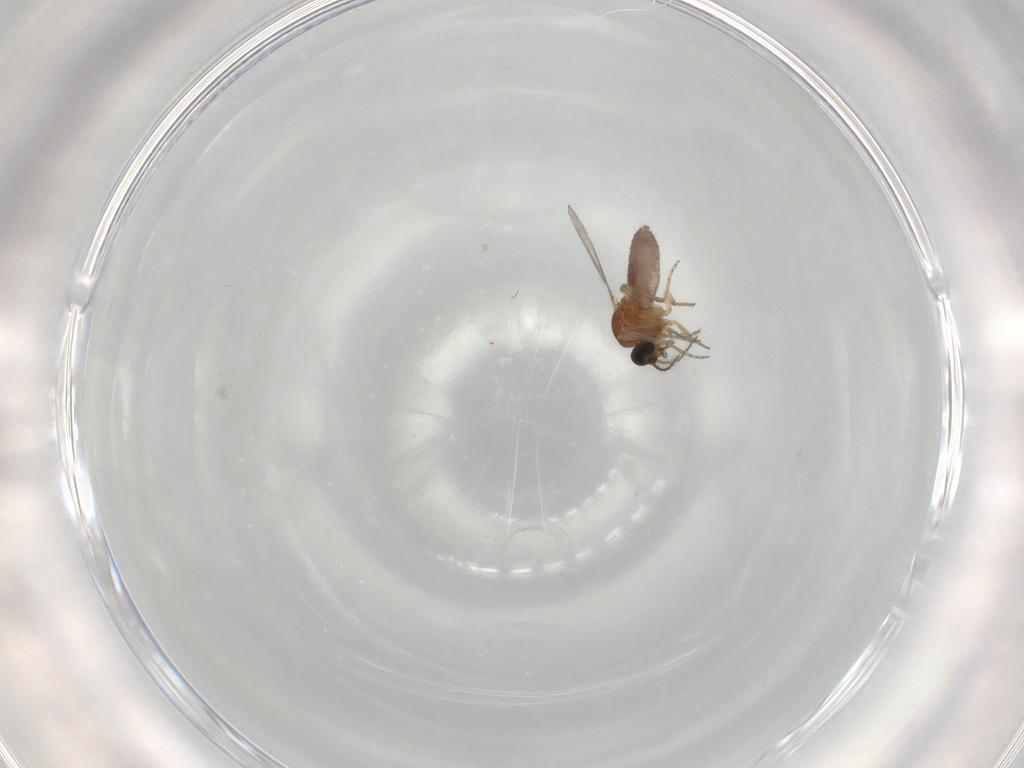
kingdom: Animalia
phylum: Arthropoda
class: Insecta
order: Diptera
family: Ceratopogonidae
